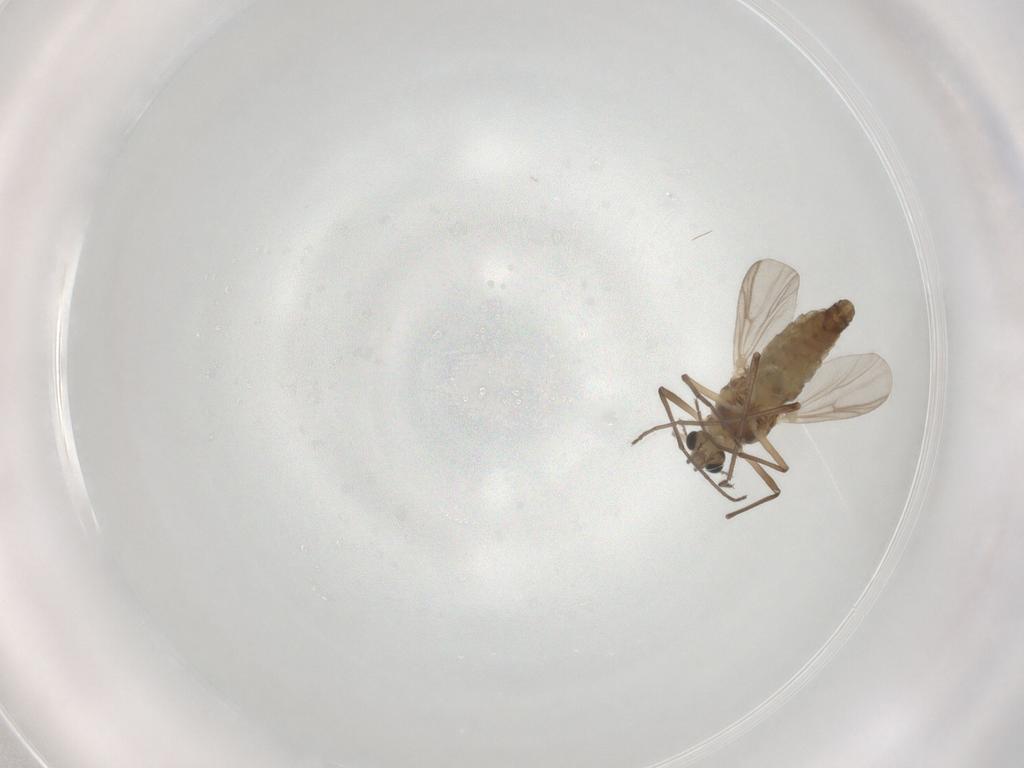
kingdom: Animalia
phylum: Arthropoda
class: Insecta
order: Diptera
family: Chironomidae
